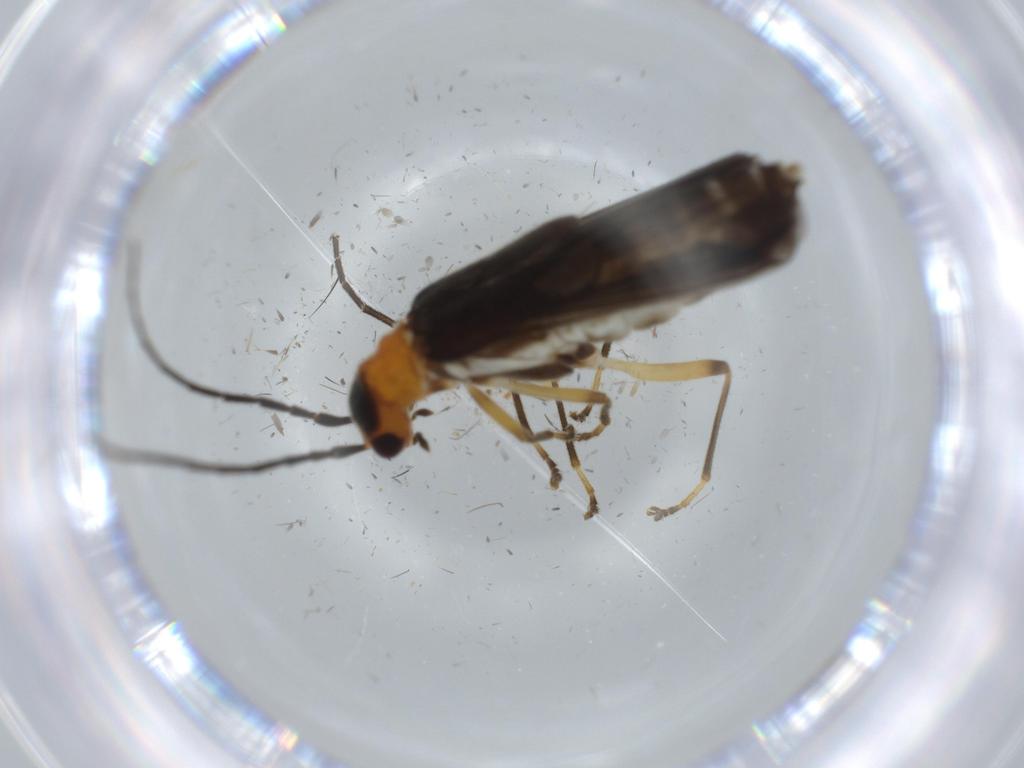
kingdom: Animalia
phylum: Arthropoda
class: Insecta
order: Coleoptera
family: Cantharidae
